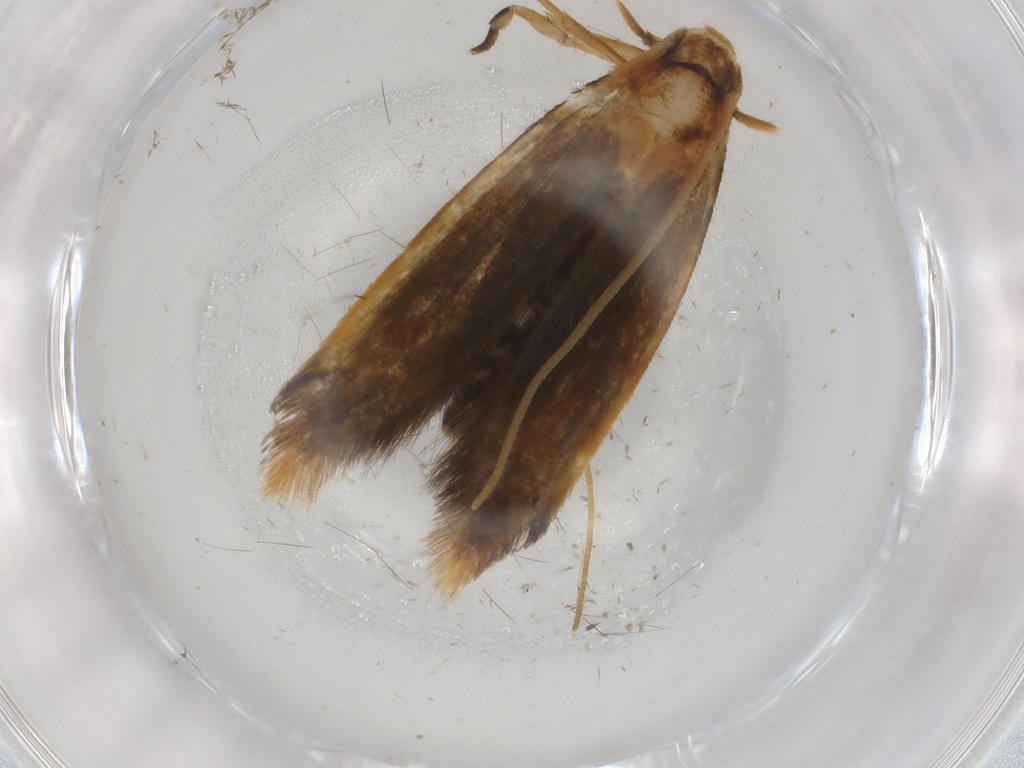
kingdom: Animalia
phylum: Arthropoda
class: Insecta
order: Lepidoptera
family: Tineidae
